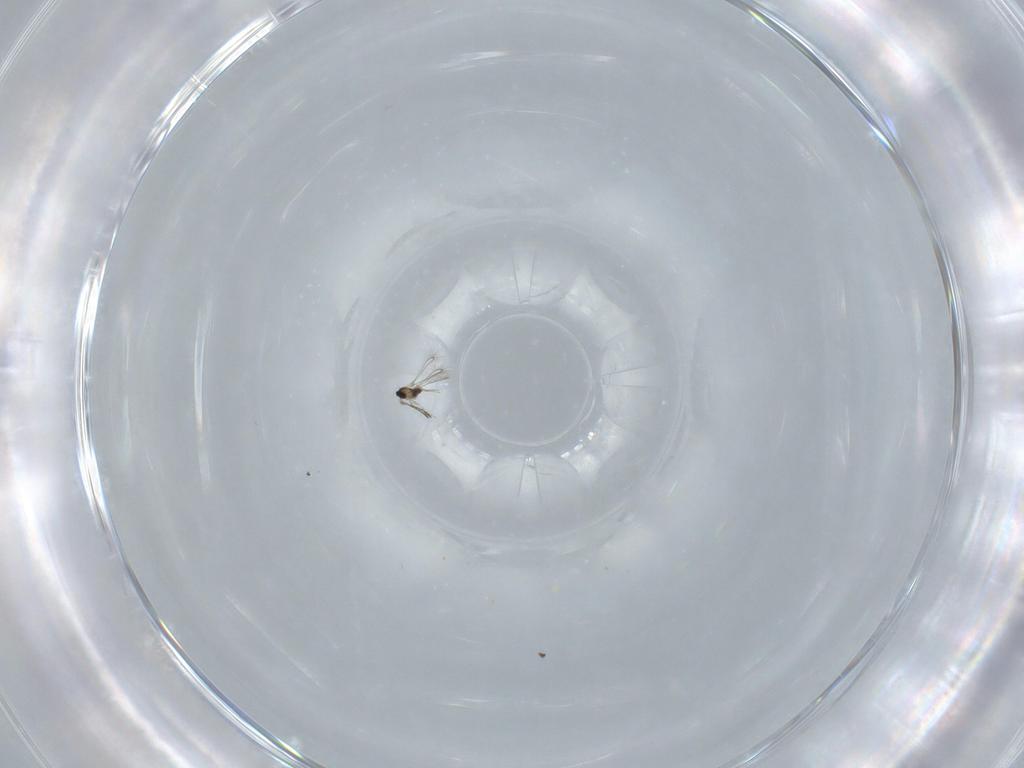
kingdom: Animalia
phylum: Arthropoda
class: Insecta
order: Hymenoptera
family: Mymaridae
